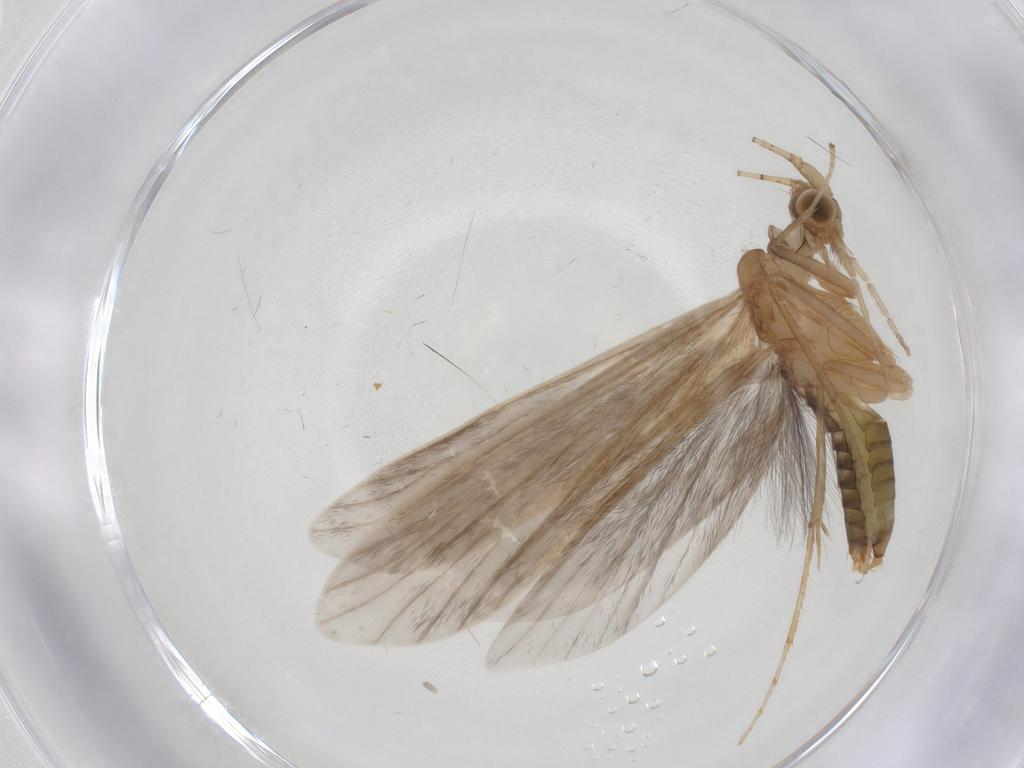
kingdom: Animalia
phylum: Arthropoda
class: Insecta
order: Trichoptera
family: Leptoceridae
